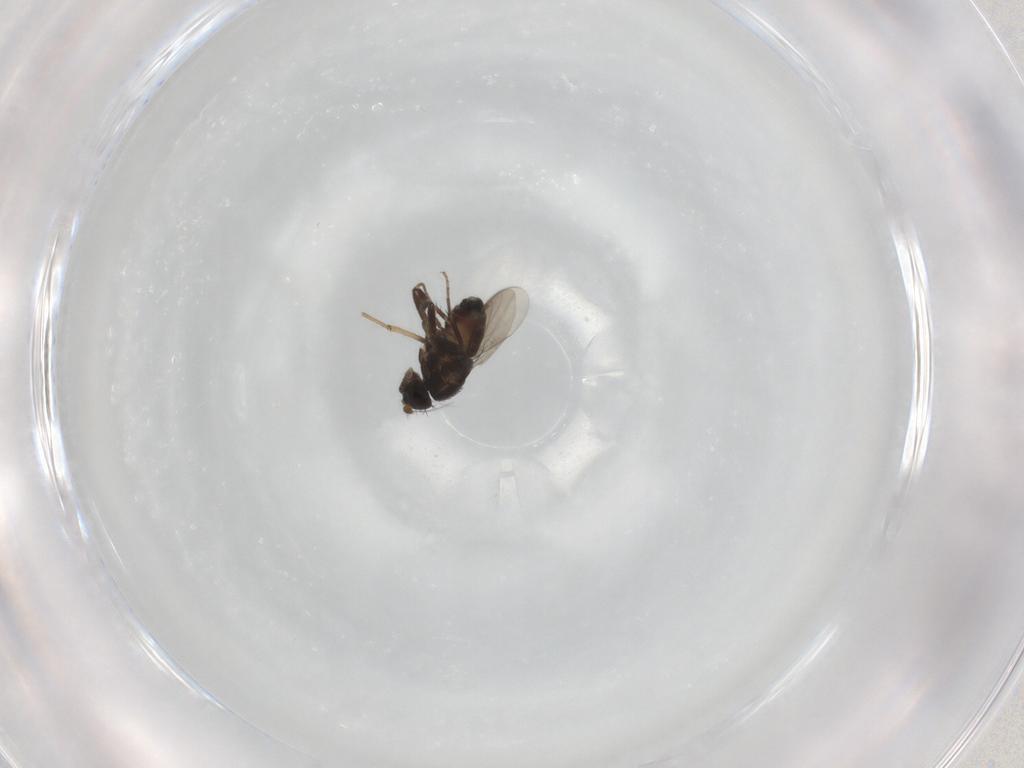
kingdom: Animalia
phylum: Arthropoda
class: Insecta
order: Diptera
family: Sphaeroceridae
